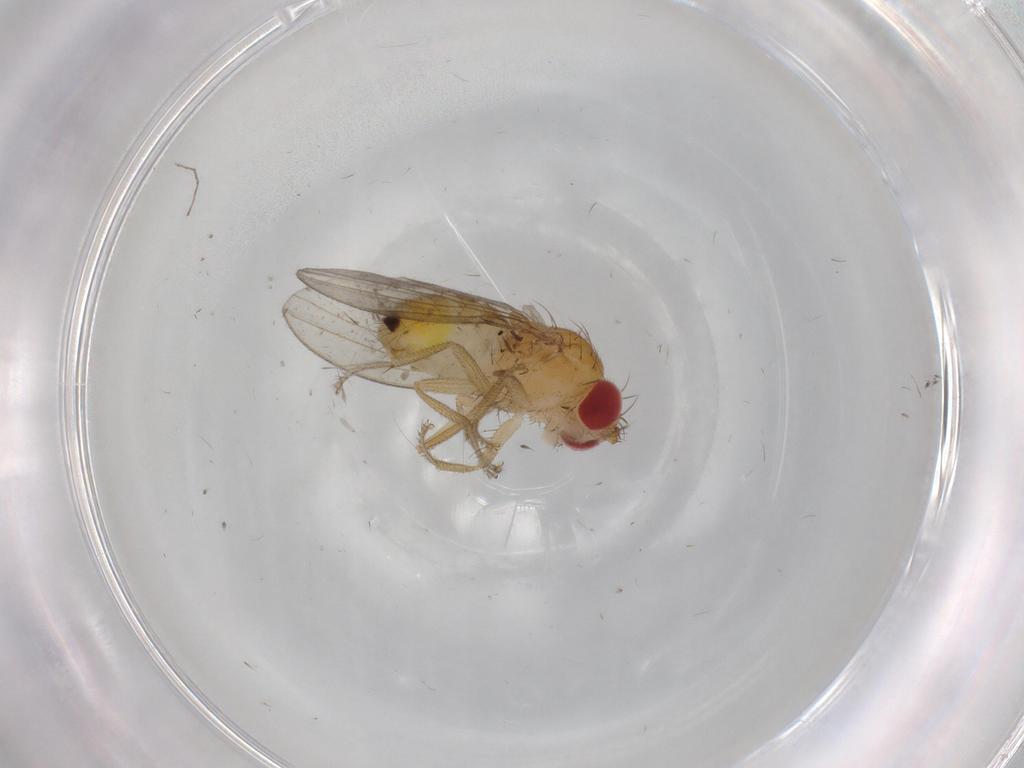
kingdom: Animalia
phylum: Arthropoda
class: Insecta
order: Diptera
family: Drosophilidae
